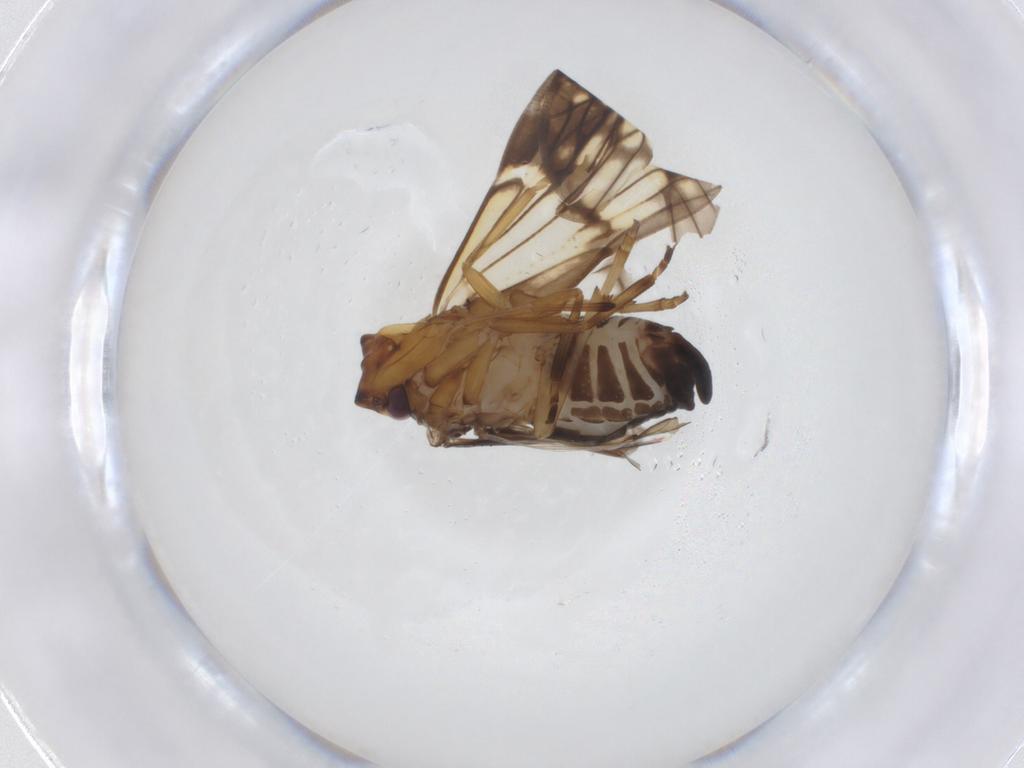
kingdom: Animalia
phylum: Arthropoda
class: Insecta
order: Hemiptera
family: Cixiidae
